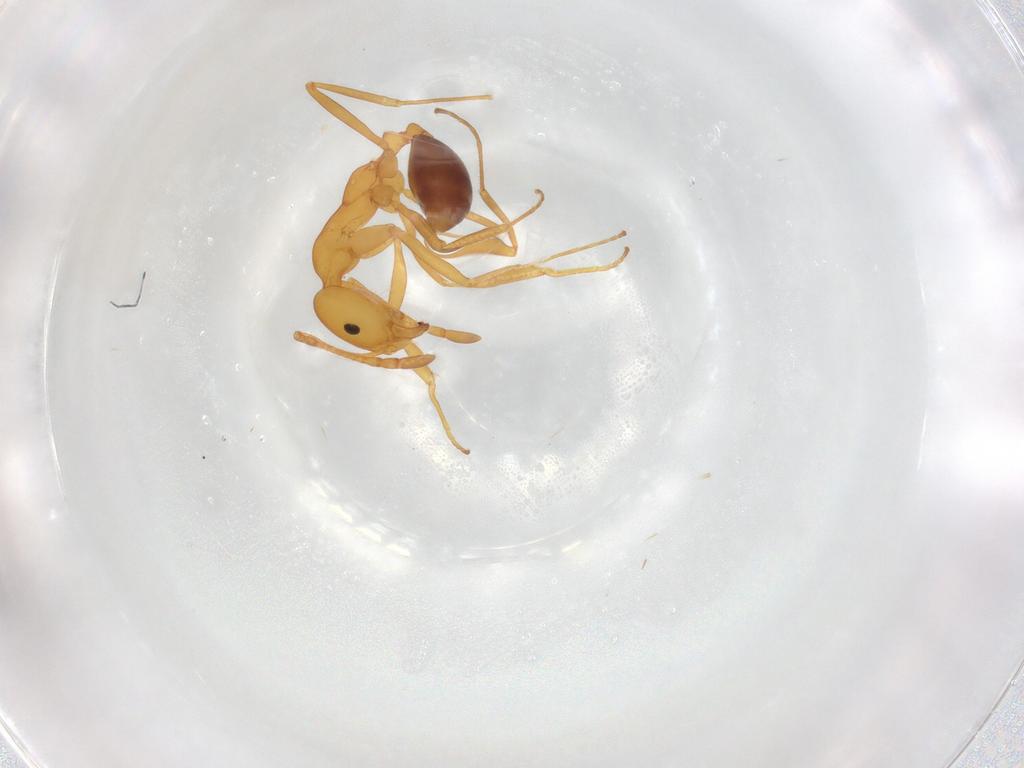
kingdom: Animalia
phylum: Arthropoda
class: Insecta
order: Hymenoptera
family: Formicidae
